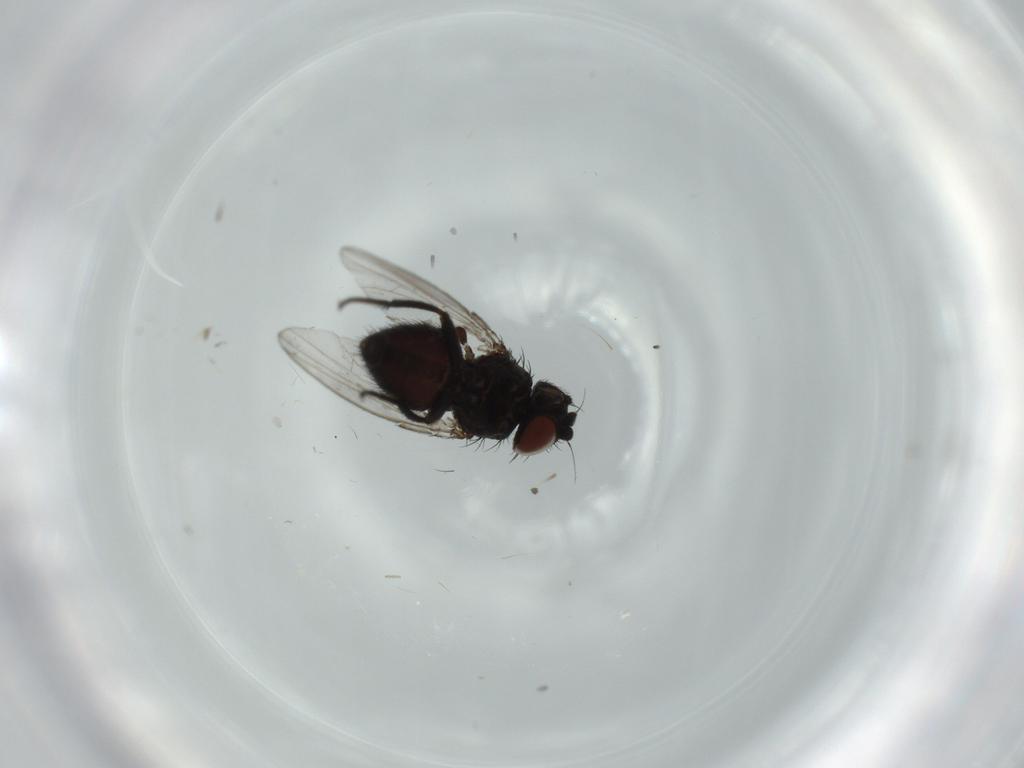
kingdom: Animalia
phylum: Arthropoda
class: Insecta
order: Diptera
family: Milichiidae
